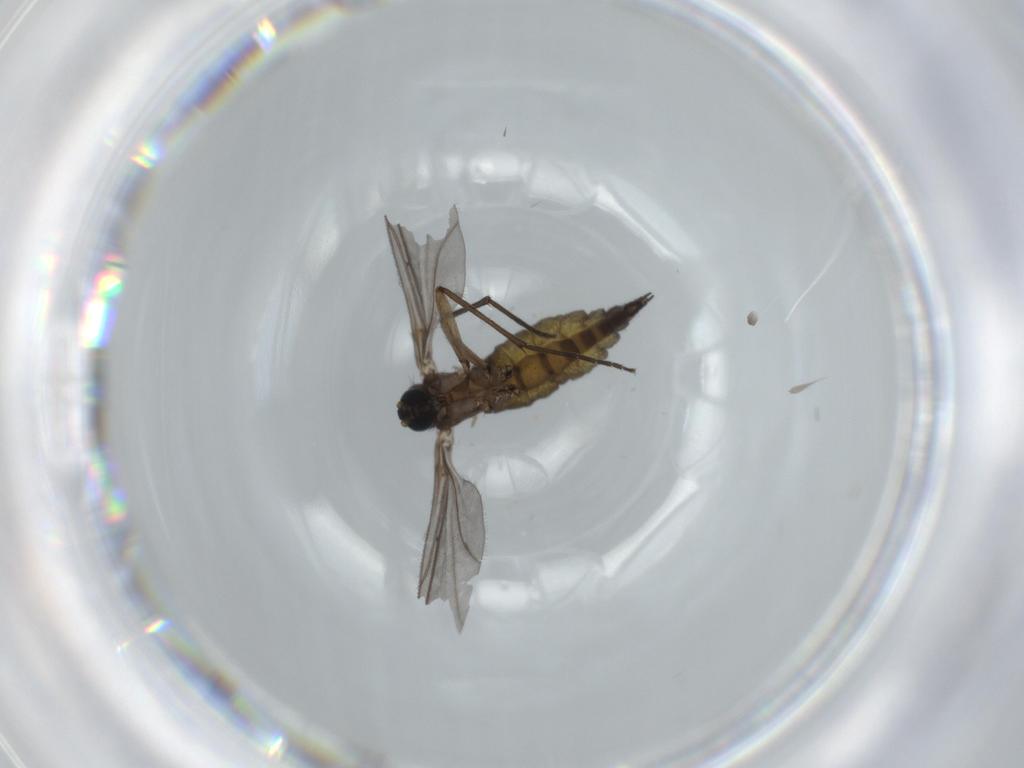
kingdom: Animalia
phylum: Arthropoda
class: Insecta
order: Diptera
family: Sciaridae
